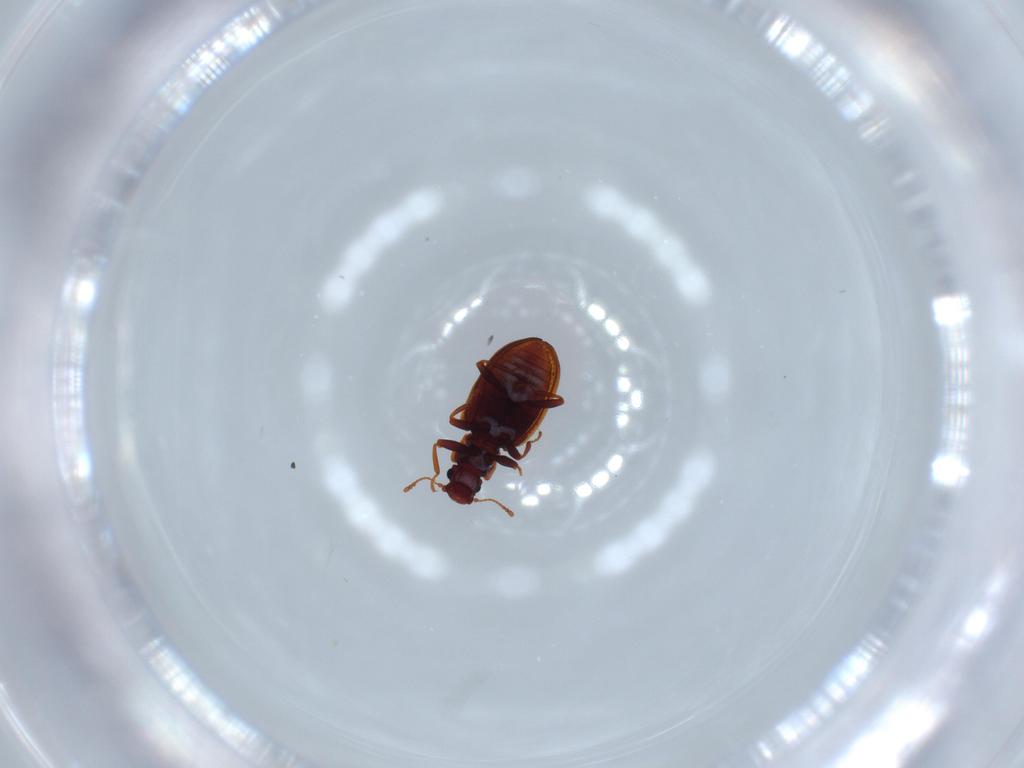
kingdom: Animalia
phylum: Arthropoda
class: Insecta
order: Coleoptera
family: Latridiidae
